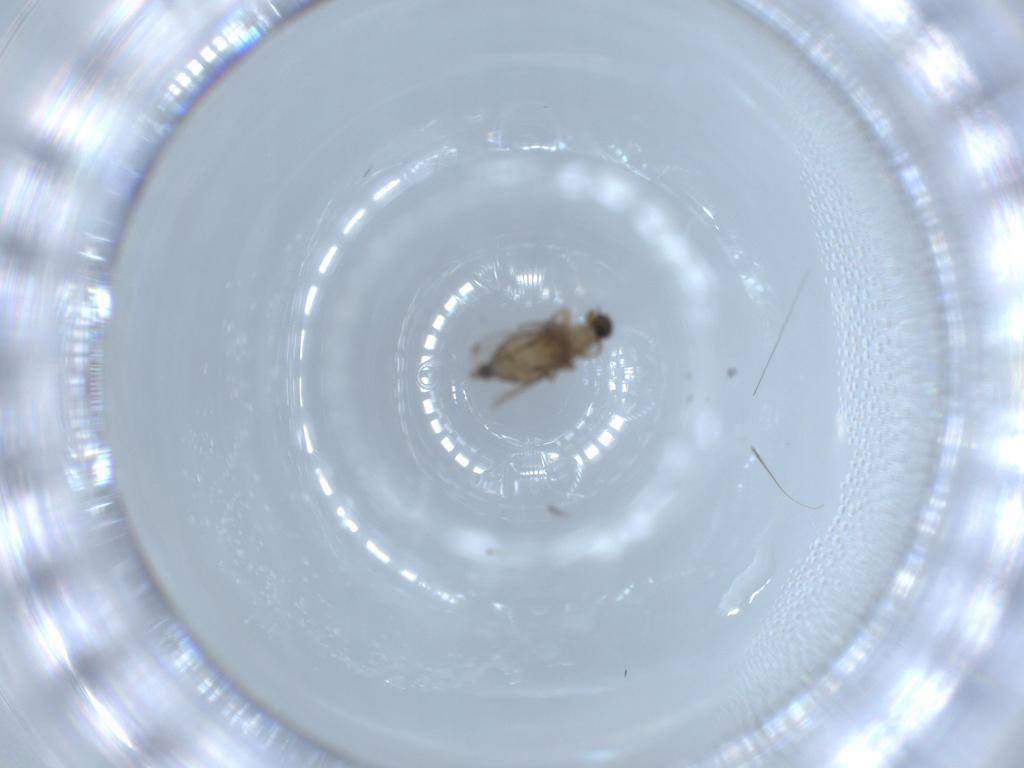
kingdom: Animalia
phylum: Arthropoda
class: Insecta
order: Diptera
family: Phoridae
